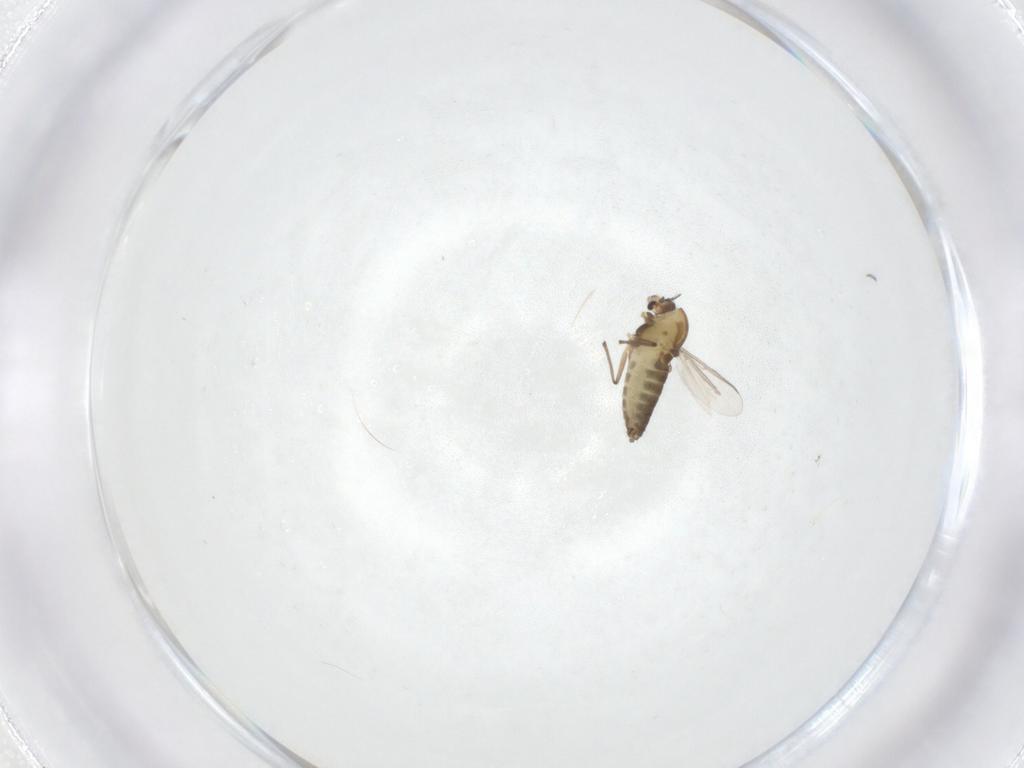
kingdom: Animalia
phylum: Arthropoda
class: Insecta
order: Diptera
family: Chironomidae
